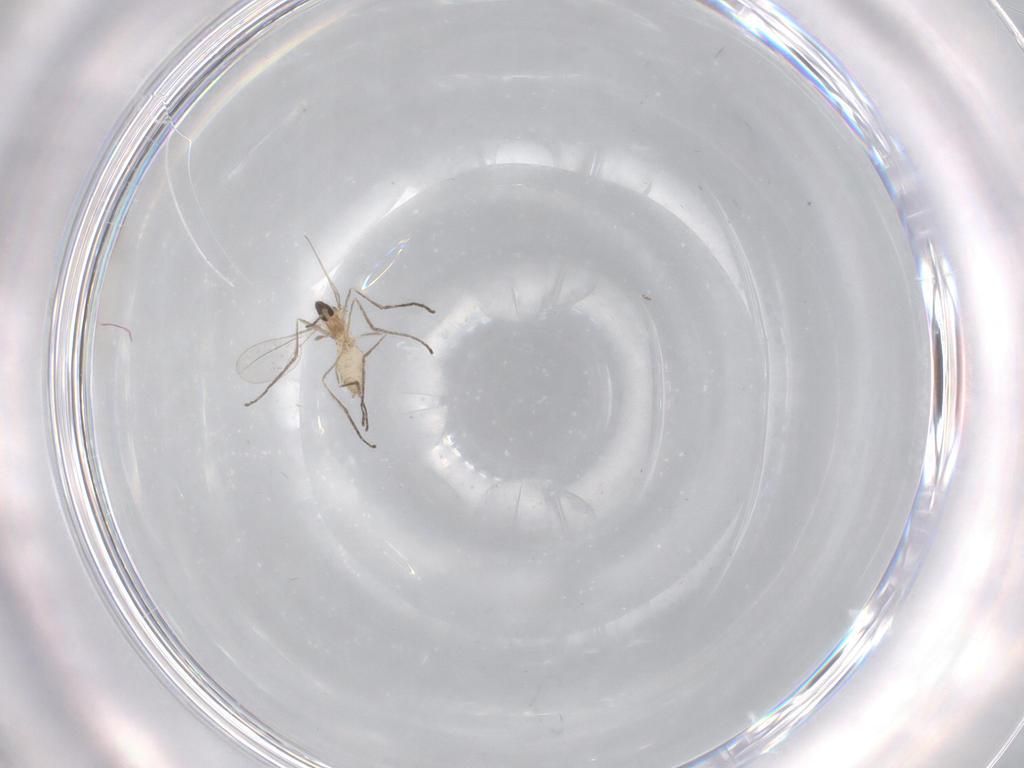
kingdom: Animalia
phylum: Arthropoda
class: Insecta
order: Diptera
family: Cecidomyiidae
